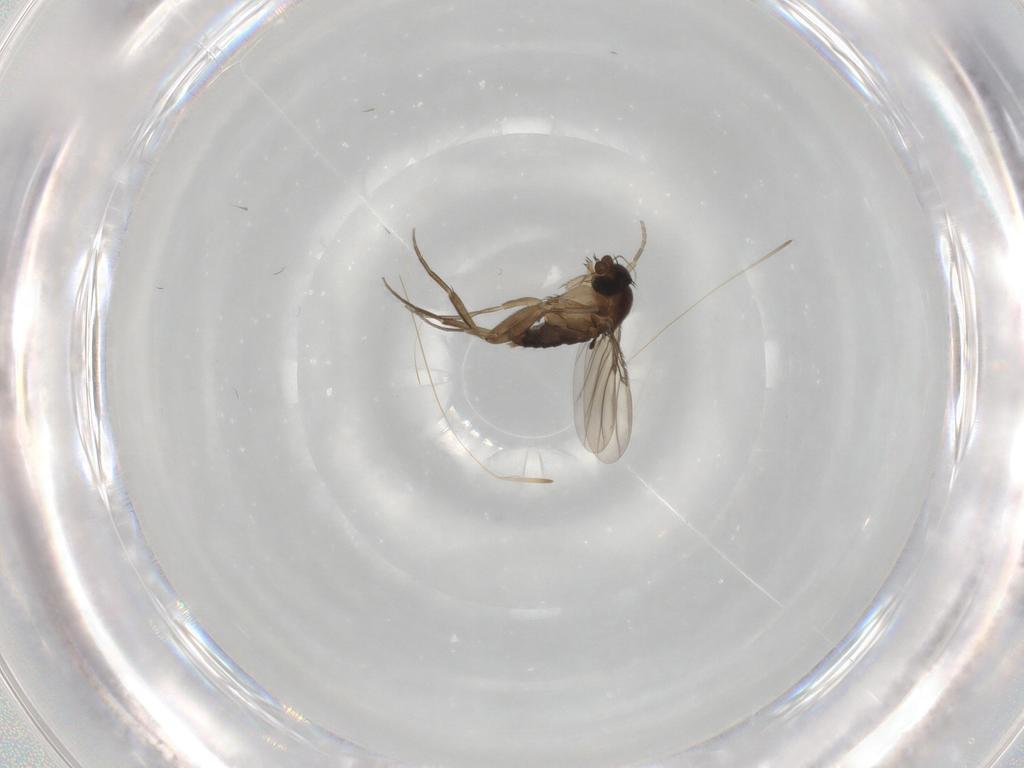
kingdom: Animalia
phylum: Arthropoda
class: Insecta
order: Diptera
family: Phoridae
